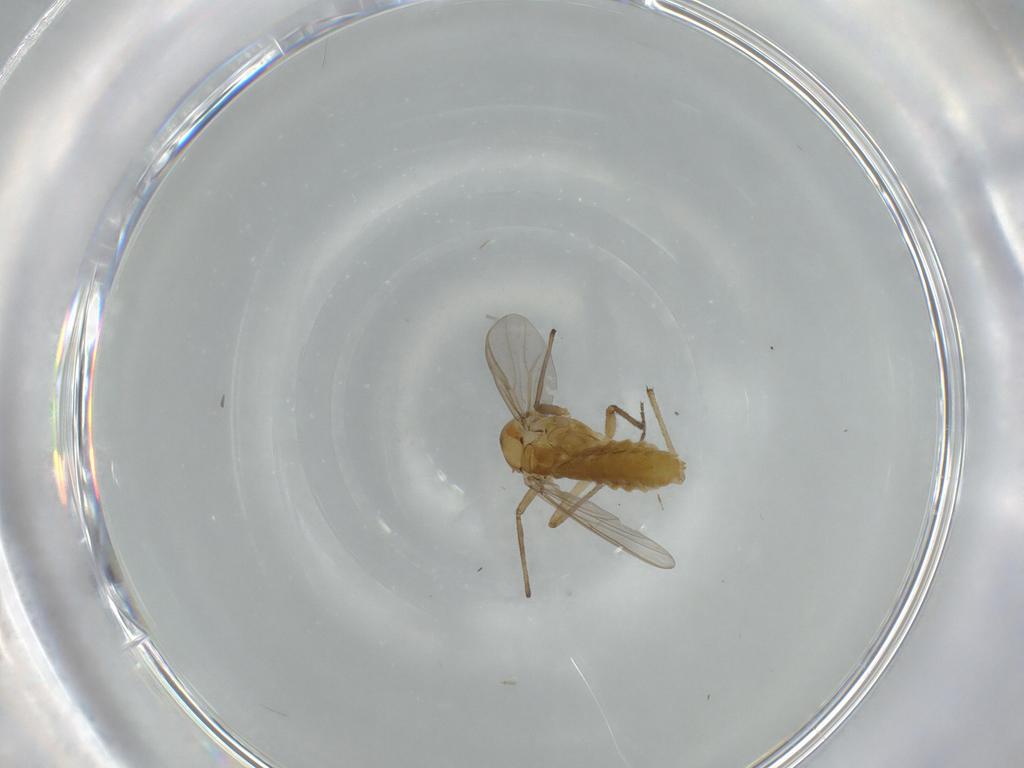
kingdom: Animalia
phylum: Arthropoda
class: Insecta
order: Diptera
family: Chironomidae
